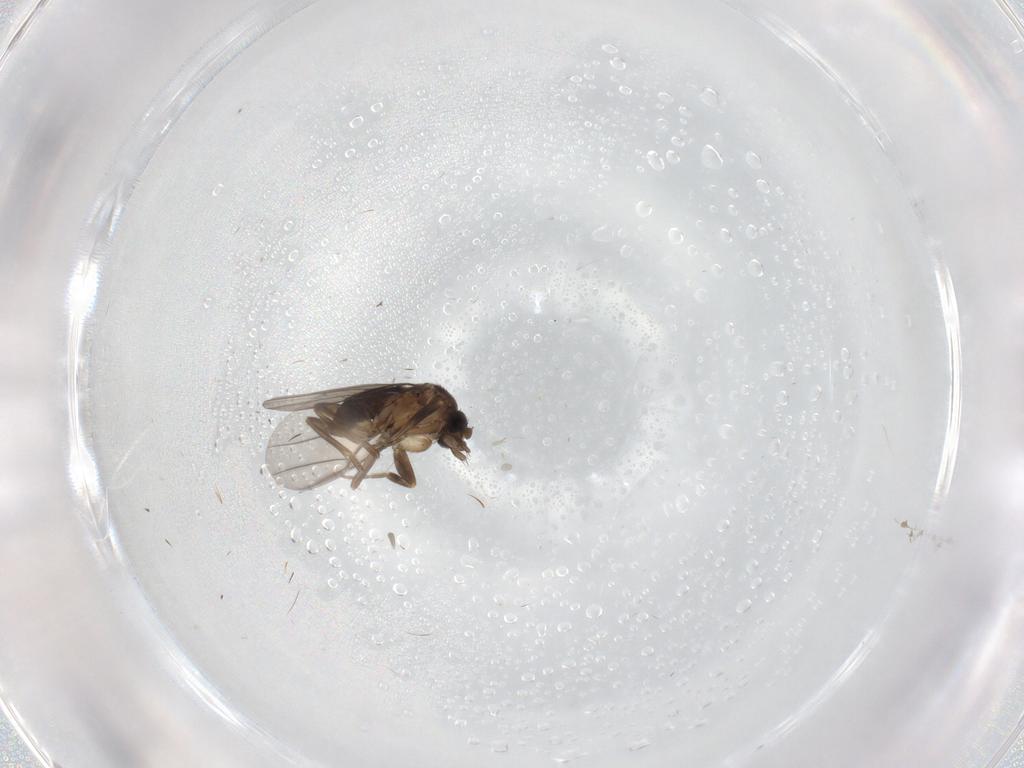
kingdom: Animalia
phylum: Arthropoda
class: Insecta
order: Diptera
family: Phoridae
